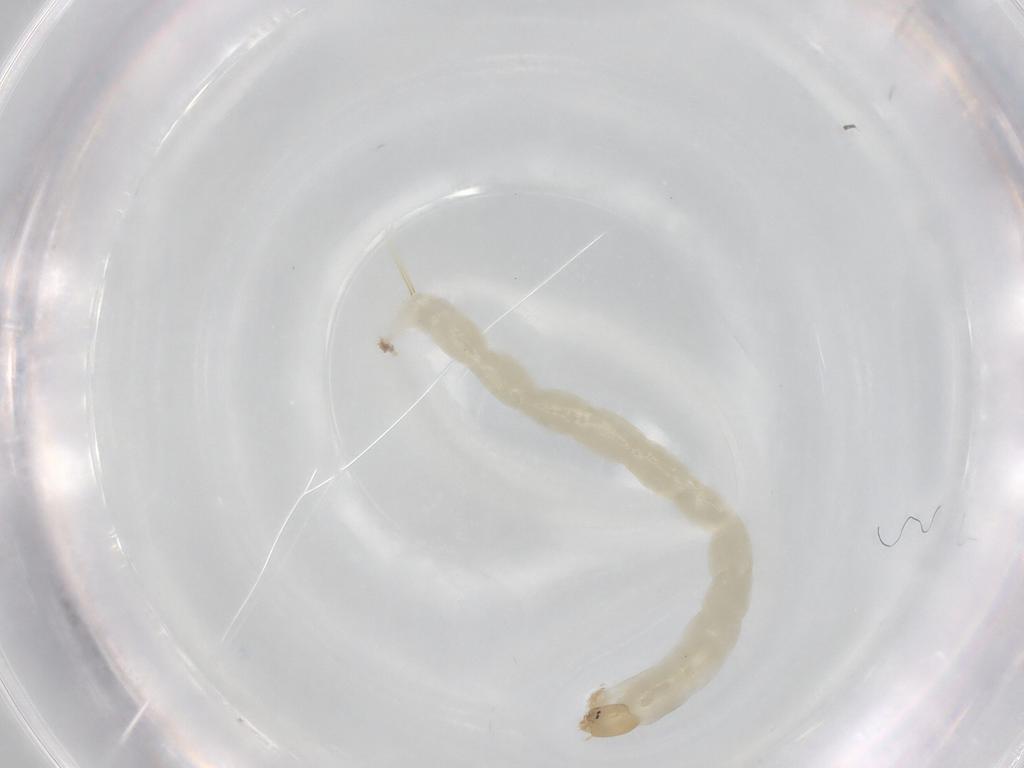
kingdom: Animalia
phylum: Arthropoda
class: Insecta
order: Diptera
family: Chironomidae
